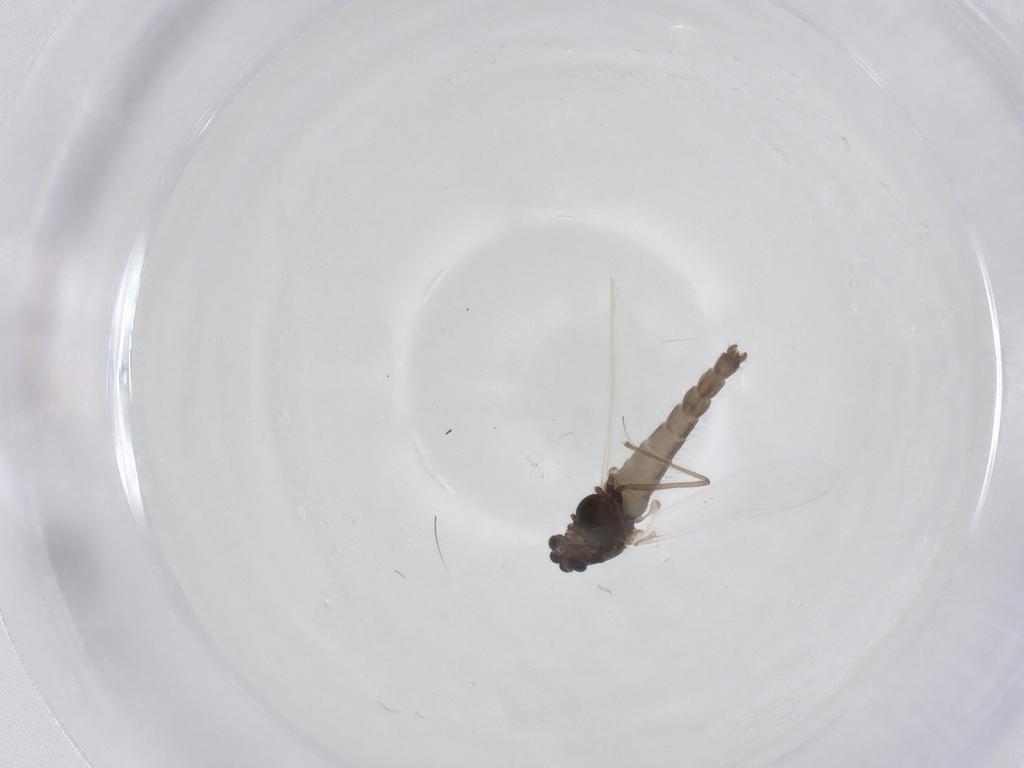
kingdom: Animalia
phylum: Arthropoda
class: Insecta
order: Diptera
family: Chironomidae
